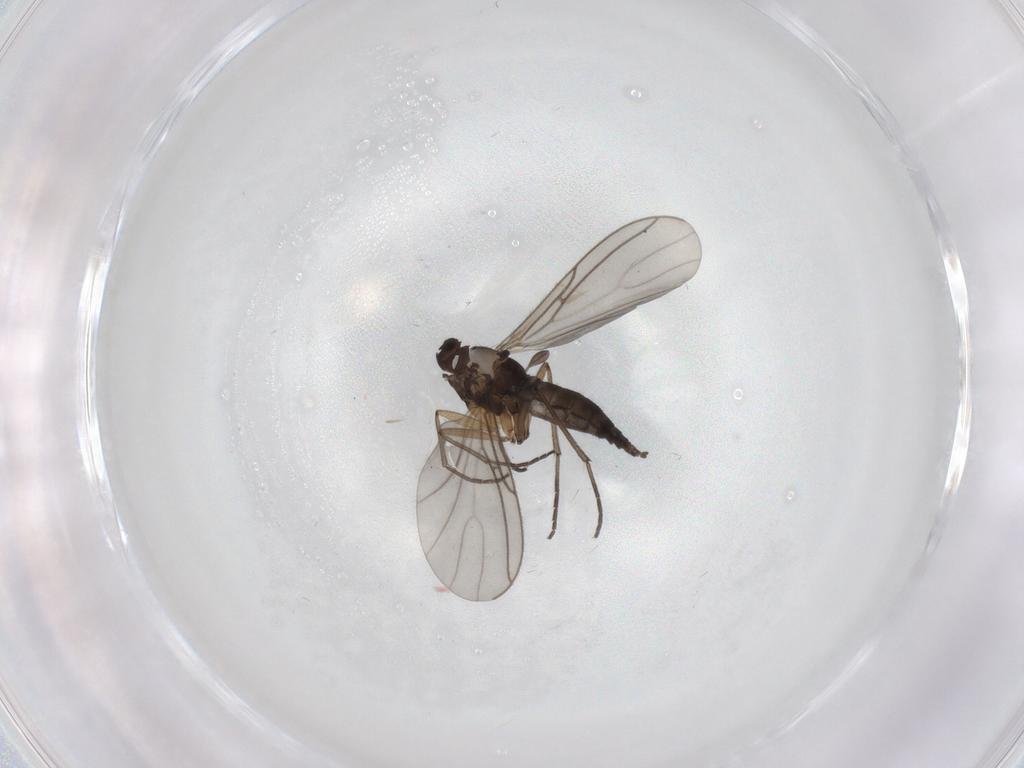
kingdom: Animalia
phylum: Arthropoda
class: Insecta
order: Diptera
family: Sciaridae
